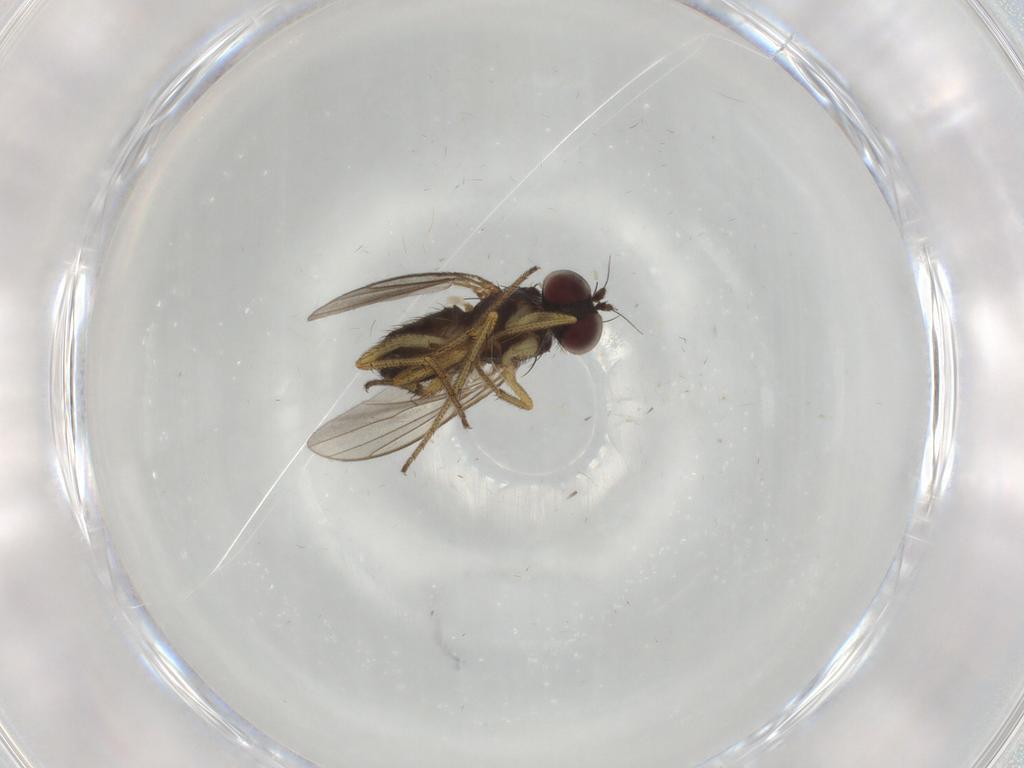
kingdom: Animalia
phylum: Arthropoda
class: Insecta
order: Diptera
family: Dolichopodidae
